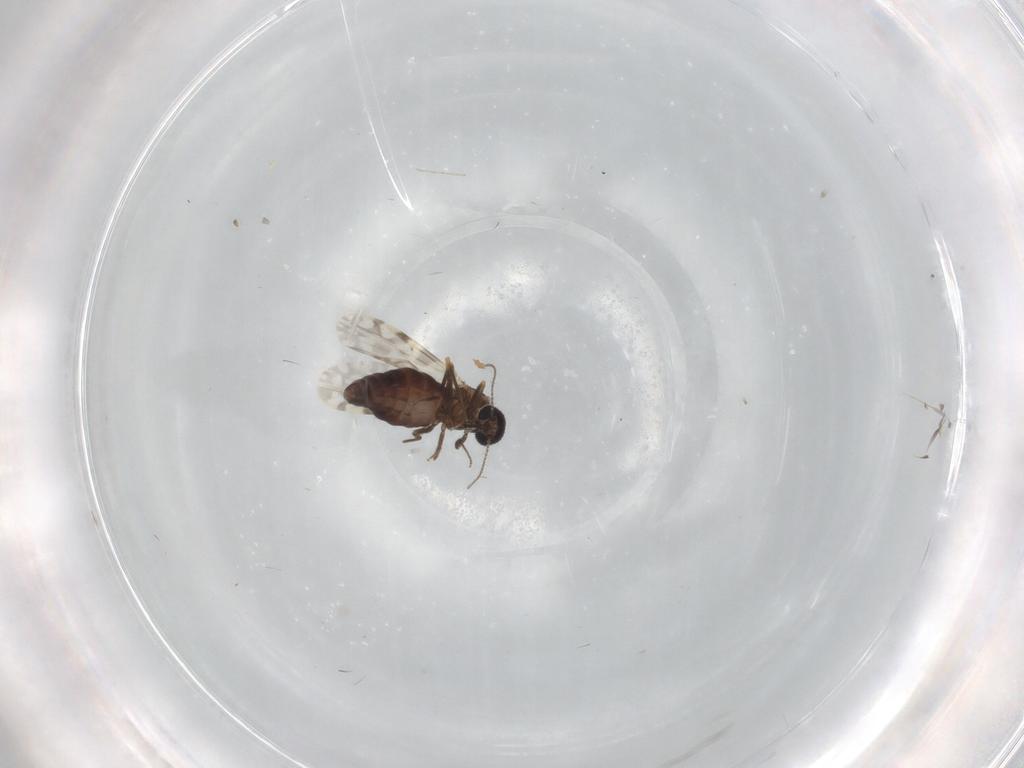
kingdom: Animalia
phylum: Arthropoda
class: Insecta
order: Diptera
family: Ceratopogonidae
